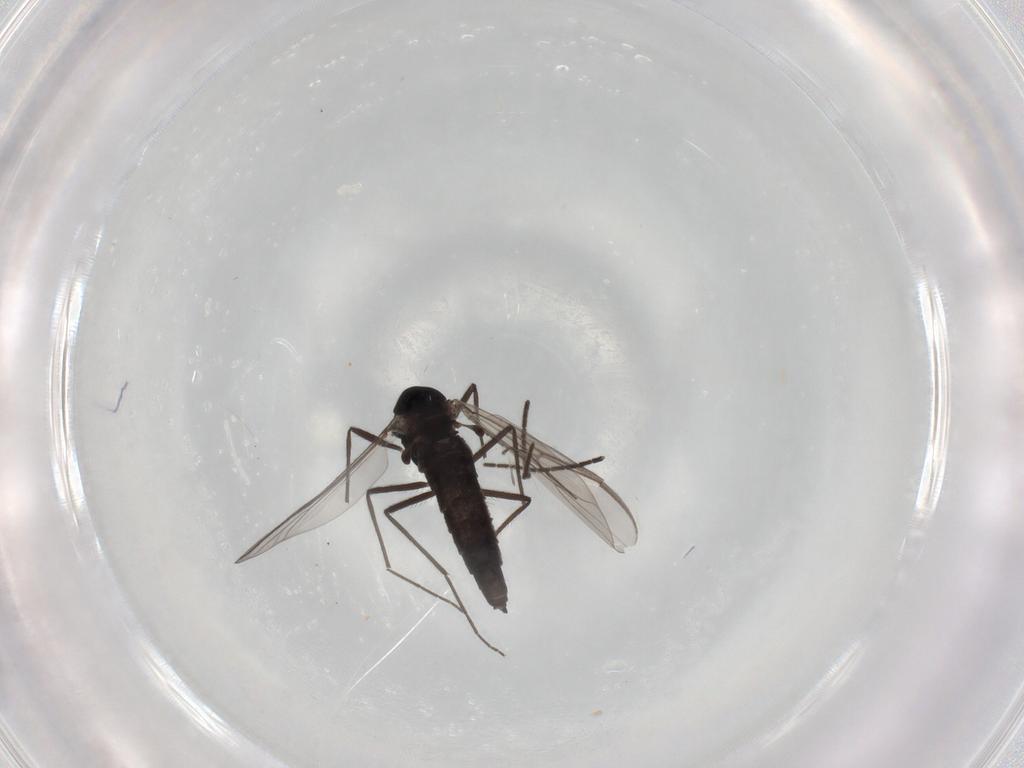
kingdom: Animalia
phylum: Arthropoda
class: Insecta
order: Diptera
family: Chironomidae
